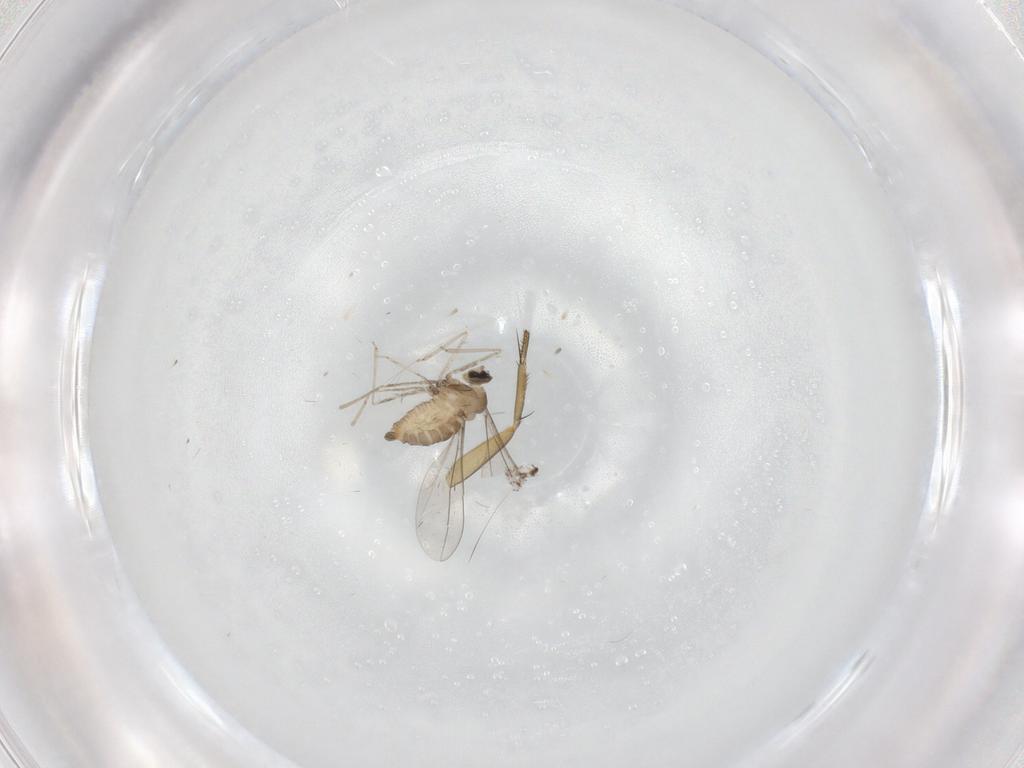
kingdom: Animalia
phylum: Arthropoda
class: Insecta
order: Diptera
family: Cecidomyiidae
